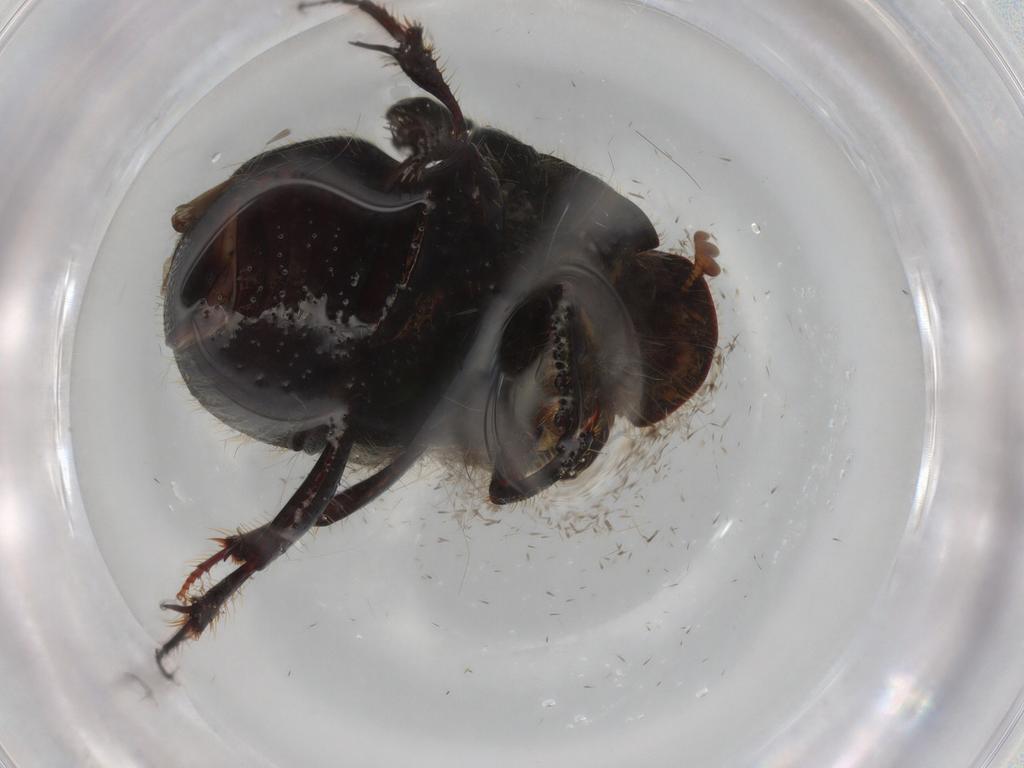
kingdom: Animalia
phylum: Arthropoda
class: Insecta
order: Coleoptera
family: Scarabaeidae
